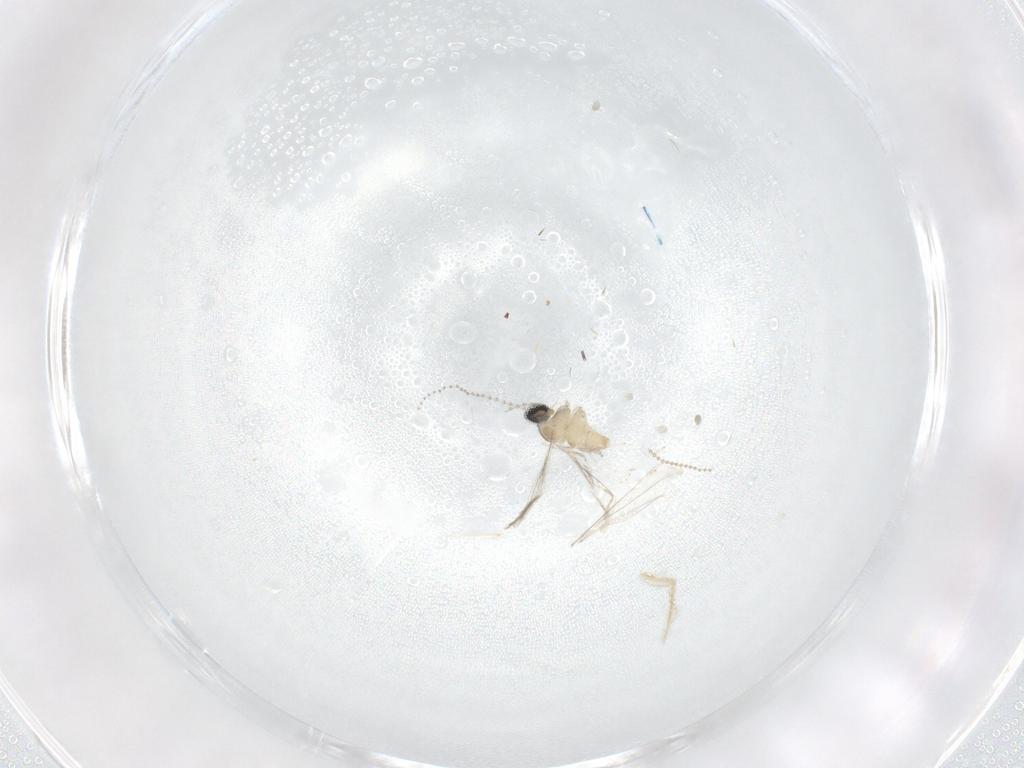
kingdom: Animalia
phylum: Arthropoda
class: Insecta
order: Diptera
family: Cecidomyiidae
